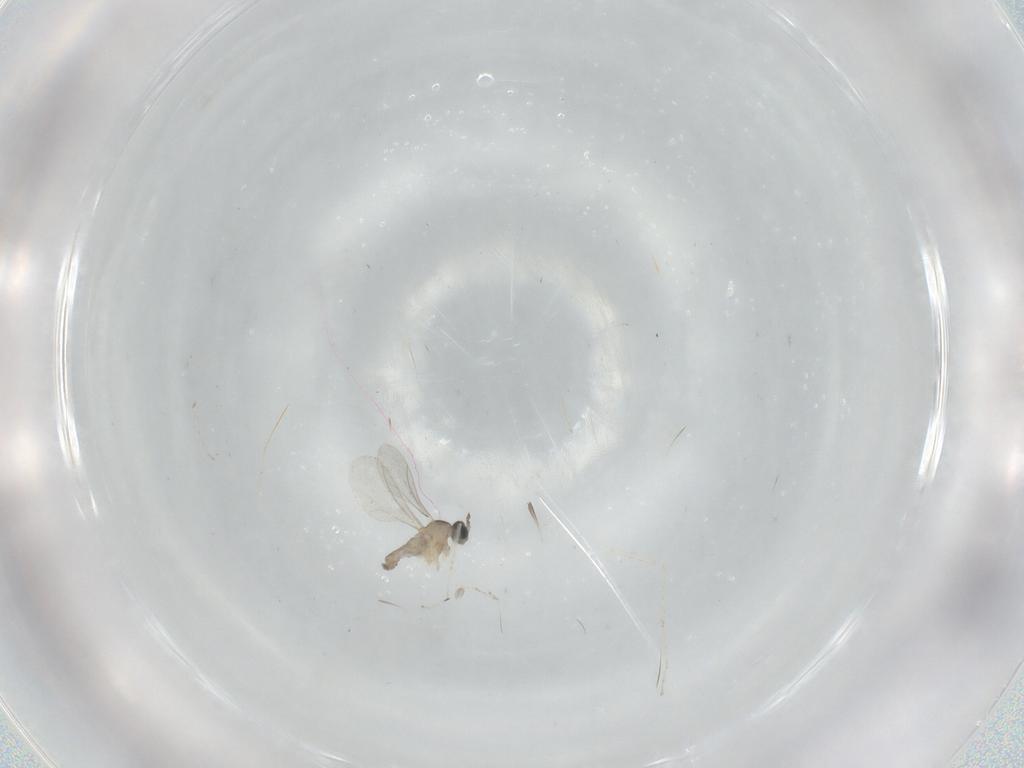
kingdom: Animalia
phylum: Arthropoda
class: Insecta
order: Diptera
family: Cecidomyiidae
